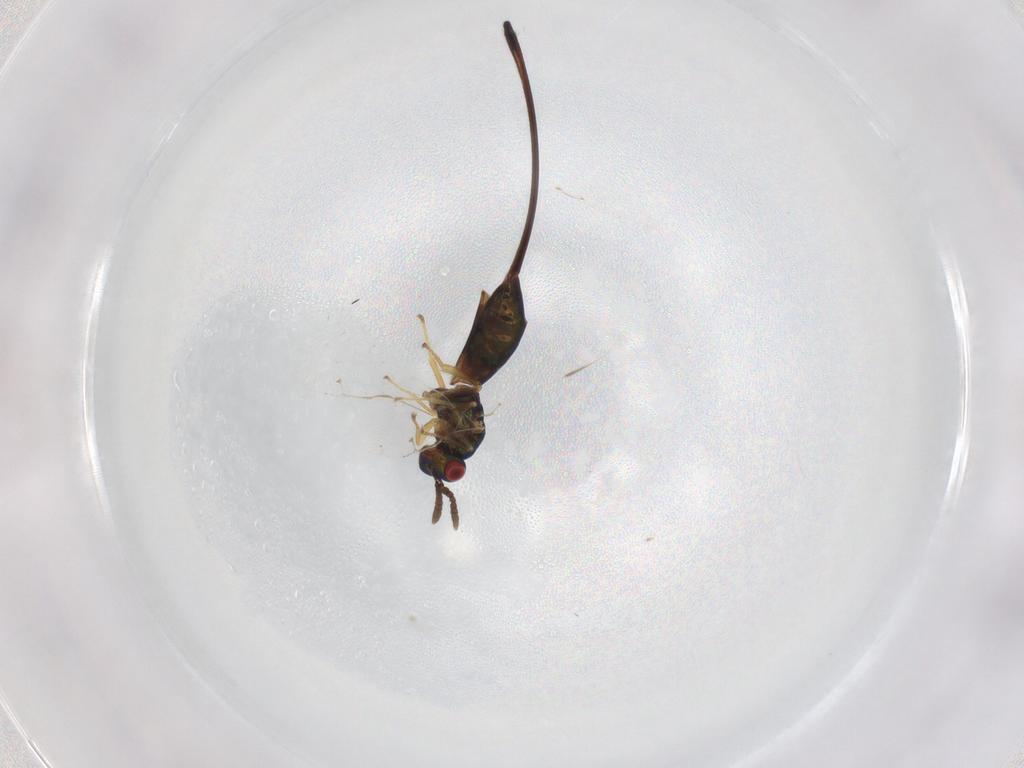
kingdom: Animalia
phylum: Arthropoda
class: Insecta
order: Hymenoptera
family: Pteromalidae
